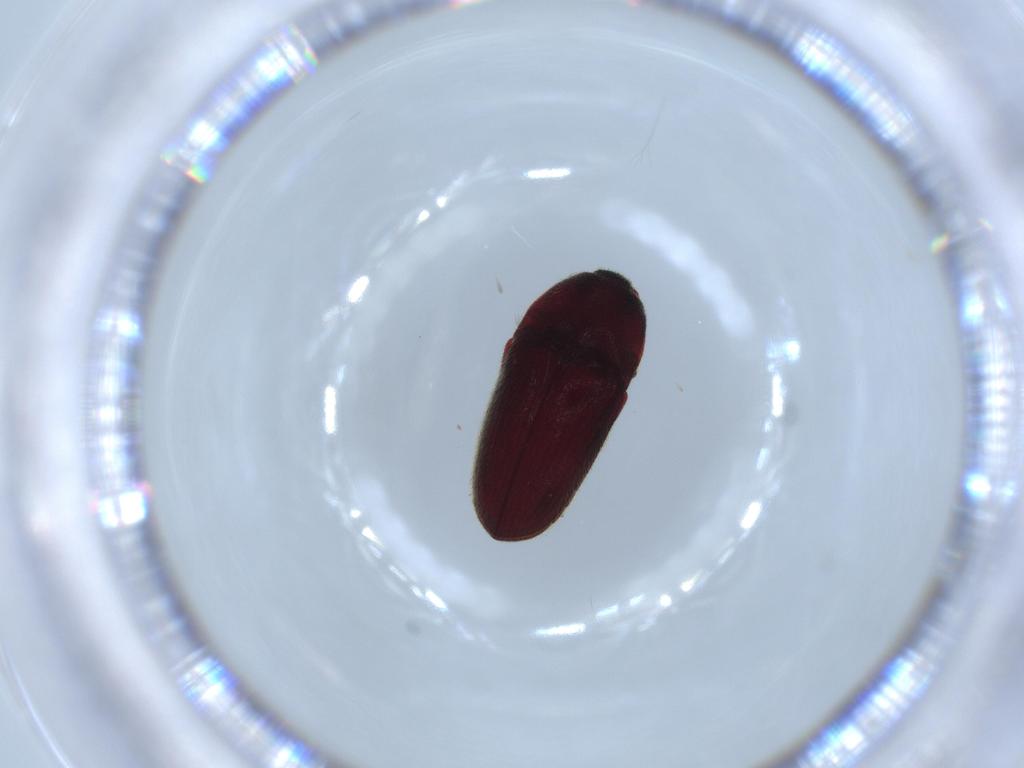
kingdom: Animalia
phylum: Arthropoda
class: Insecta
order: Coleoptera
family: Throscidae
